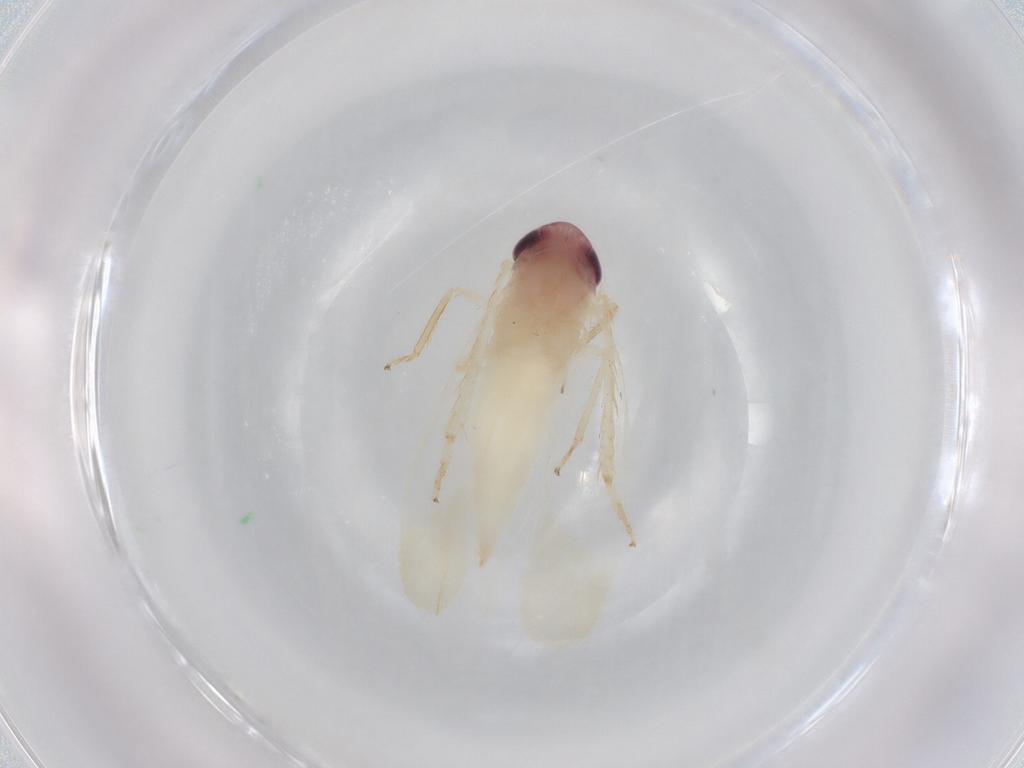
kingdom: Animalia
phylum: Arthropoda
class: Insecta
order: Hemiptera
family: Cicadellidae
